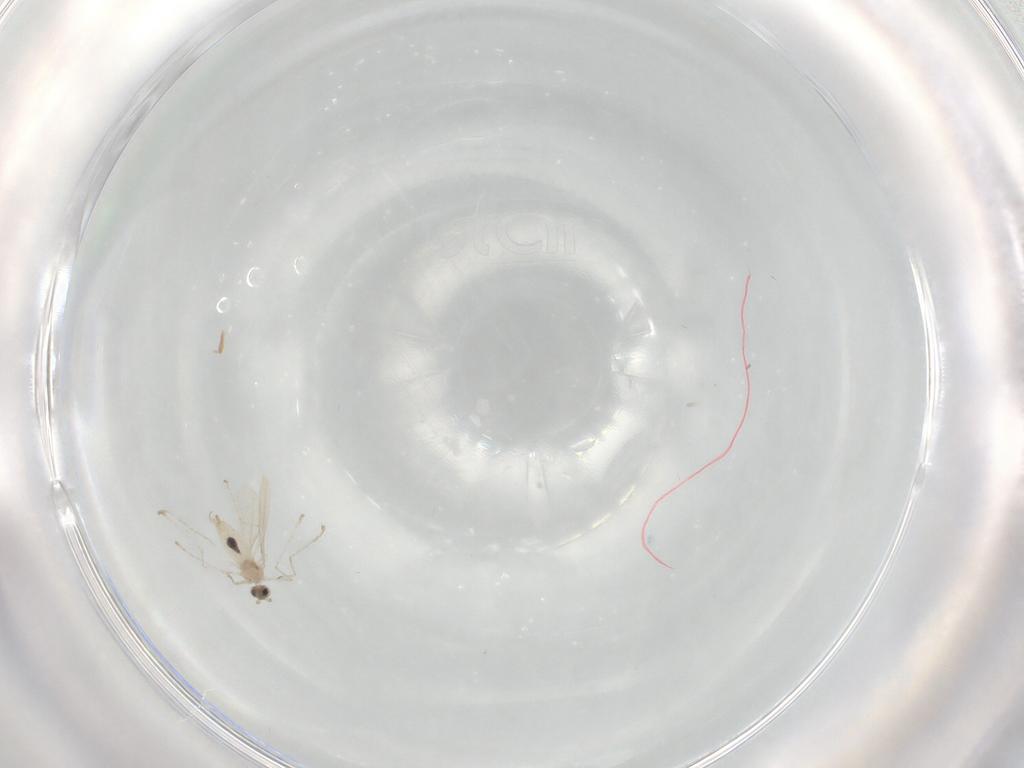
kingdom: Animalia
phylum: Arthropoda
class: Insecta
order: Diptera
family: Sciaridae
